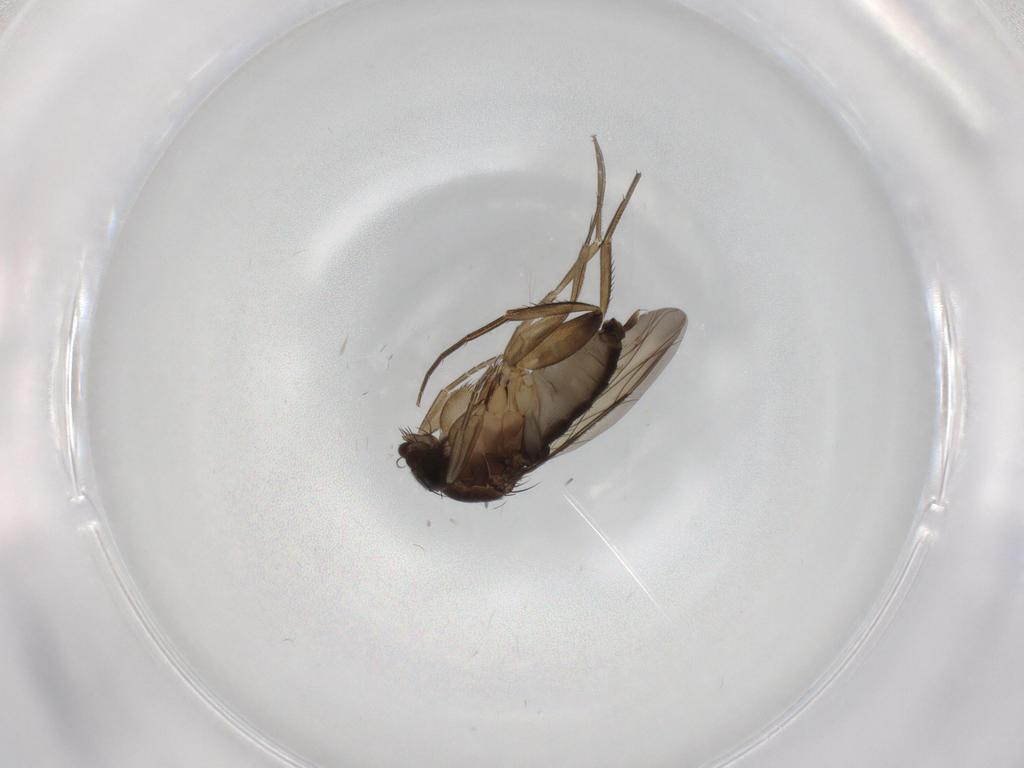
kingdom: Animalia
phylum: Arthropoda
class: Insecta
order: Diptera
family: Phoridae
